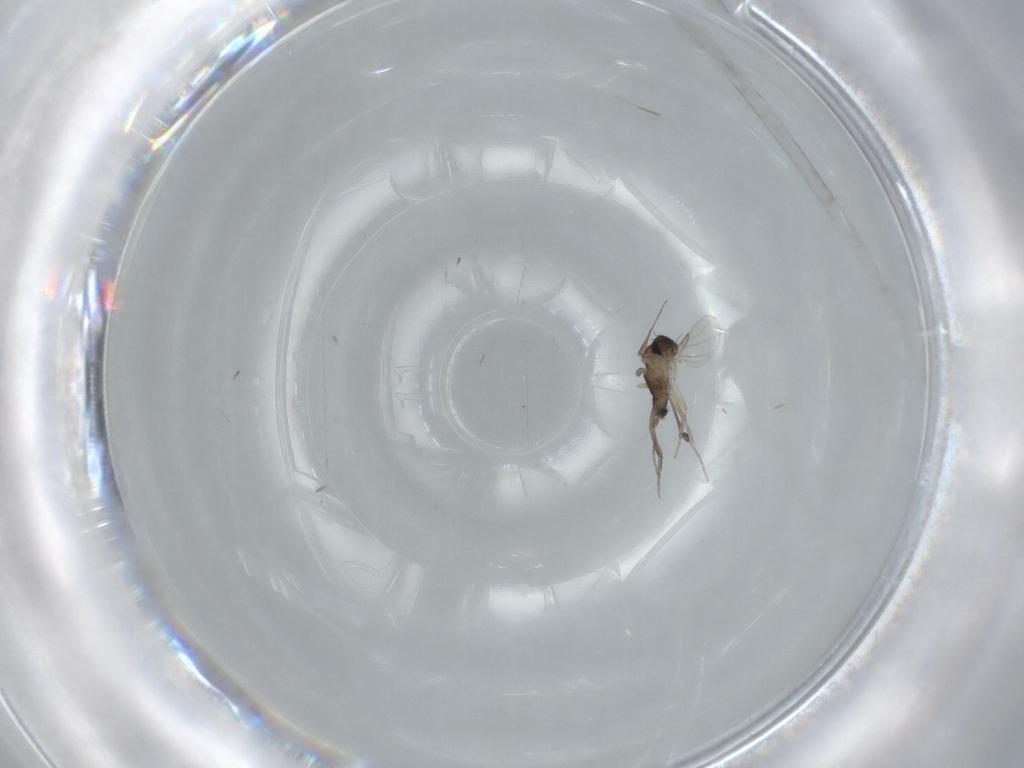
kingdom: Animalia
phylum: Arthropoda
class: Insecta
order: Diptera
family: Phoridae
